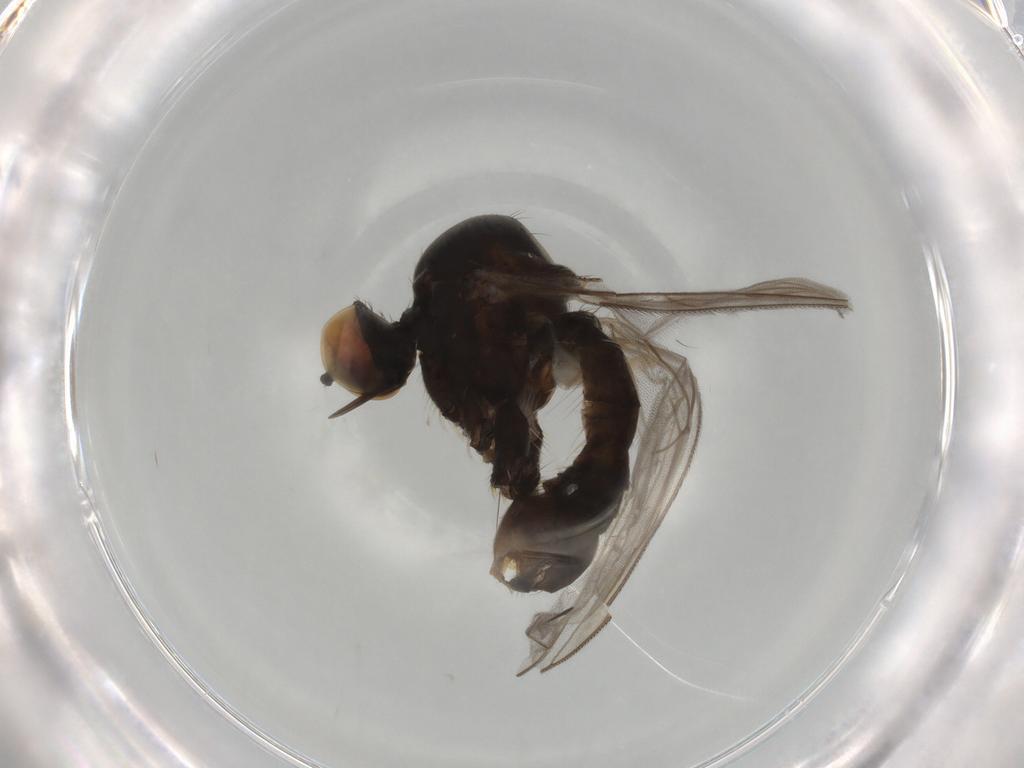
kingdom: Animalia
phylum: Arthropoda
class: Insecta
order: Diptera
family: Hybotidae
